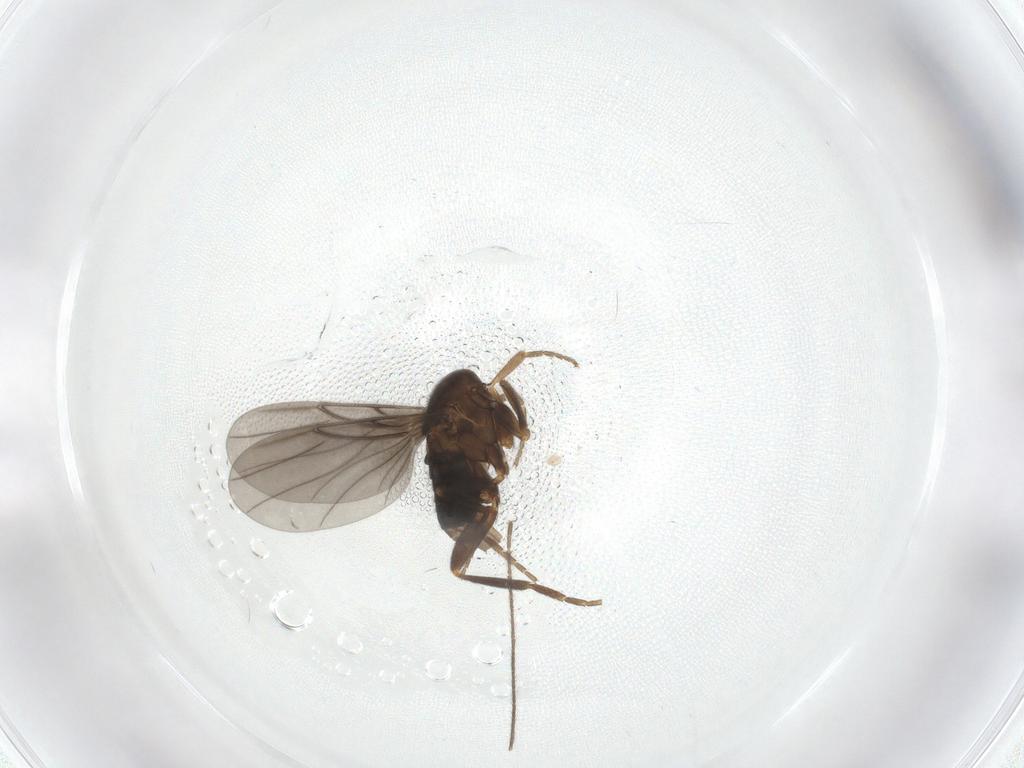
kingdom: Animalia
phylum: Arthropoda
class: Insecta
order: Diptera
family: Phoridae
